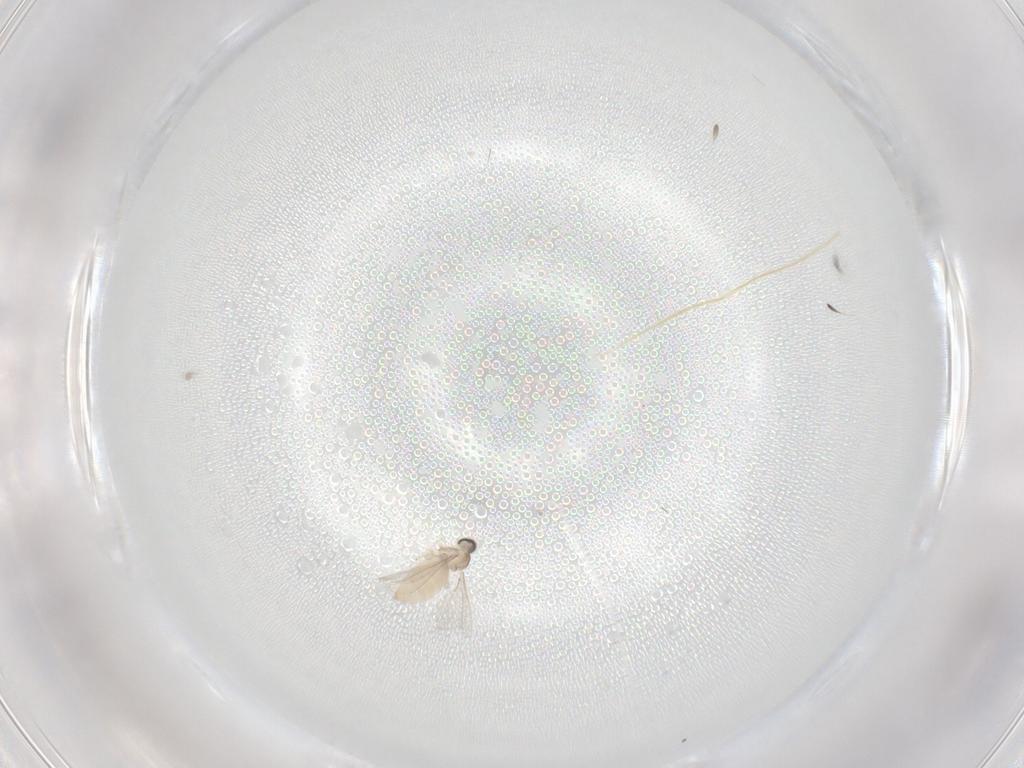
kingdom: Animalia
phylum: Arthropoda
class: Insecta
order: Diptera
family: Cecidomyiidae
